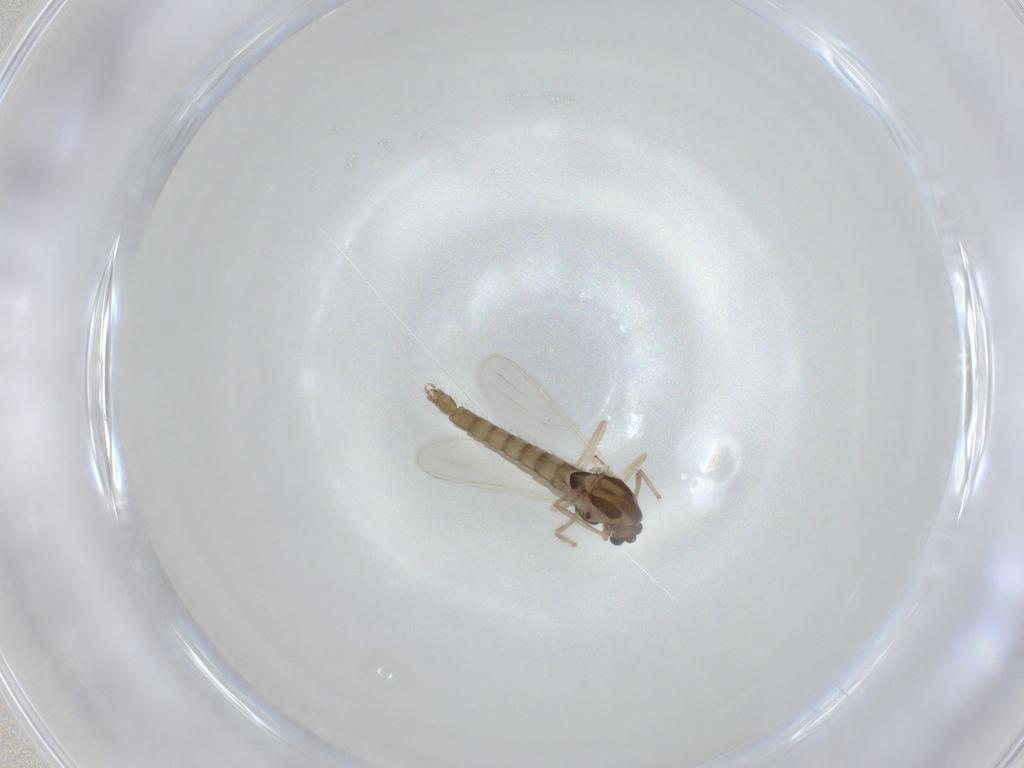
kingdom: Animalia
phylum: Arthropoda
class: Insecta
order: Diptera
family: Chironomidae
